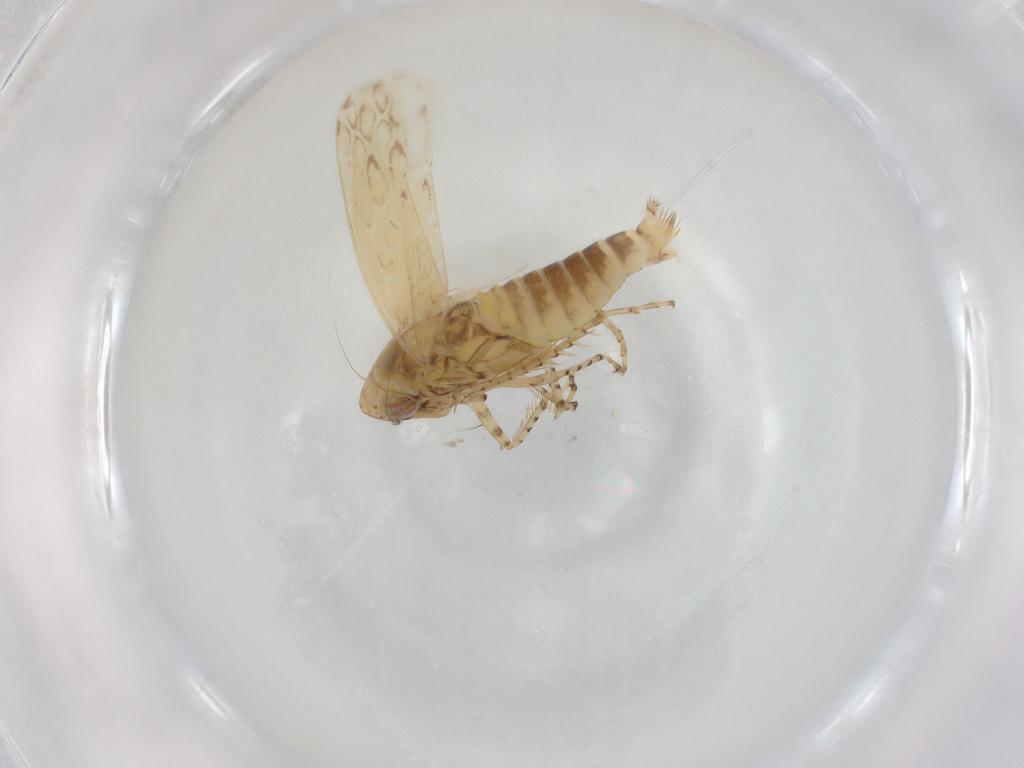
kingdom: Animalia
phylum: Arthropoda
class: Insecta
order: Hemiptera
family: Cicadellidae
